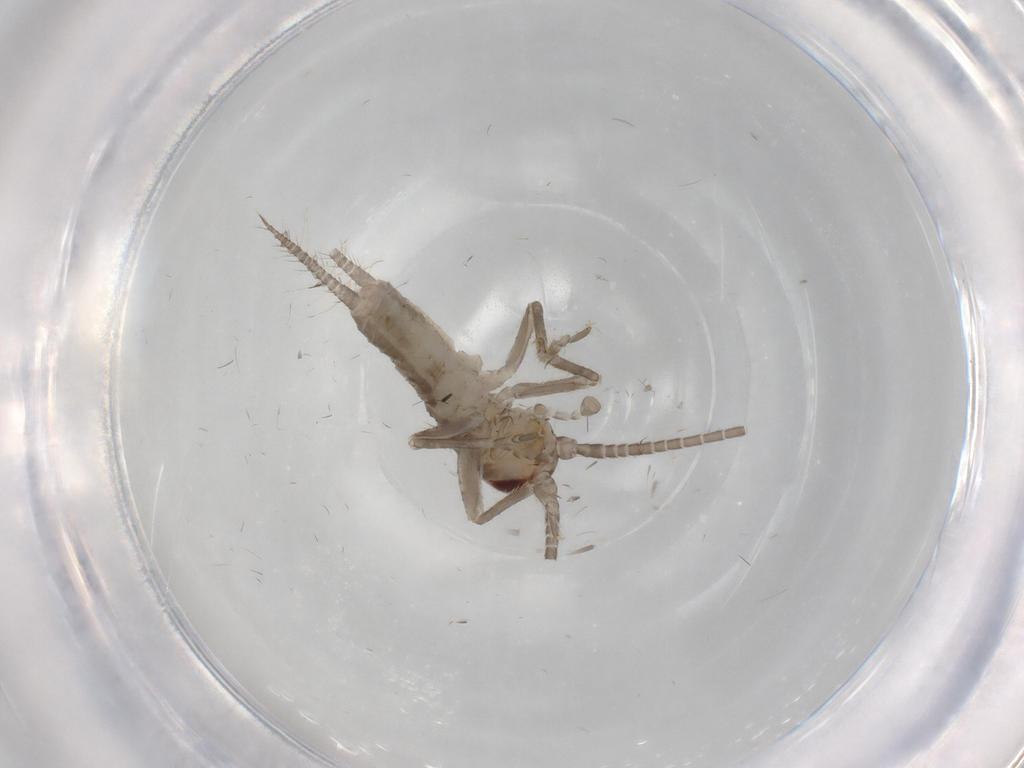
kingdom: Animalia
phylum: Arthropoda
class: Insecta
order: Orthoptera
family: Gryllidae
